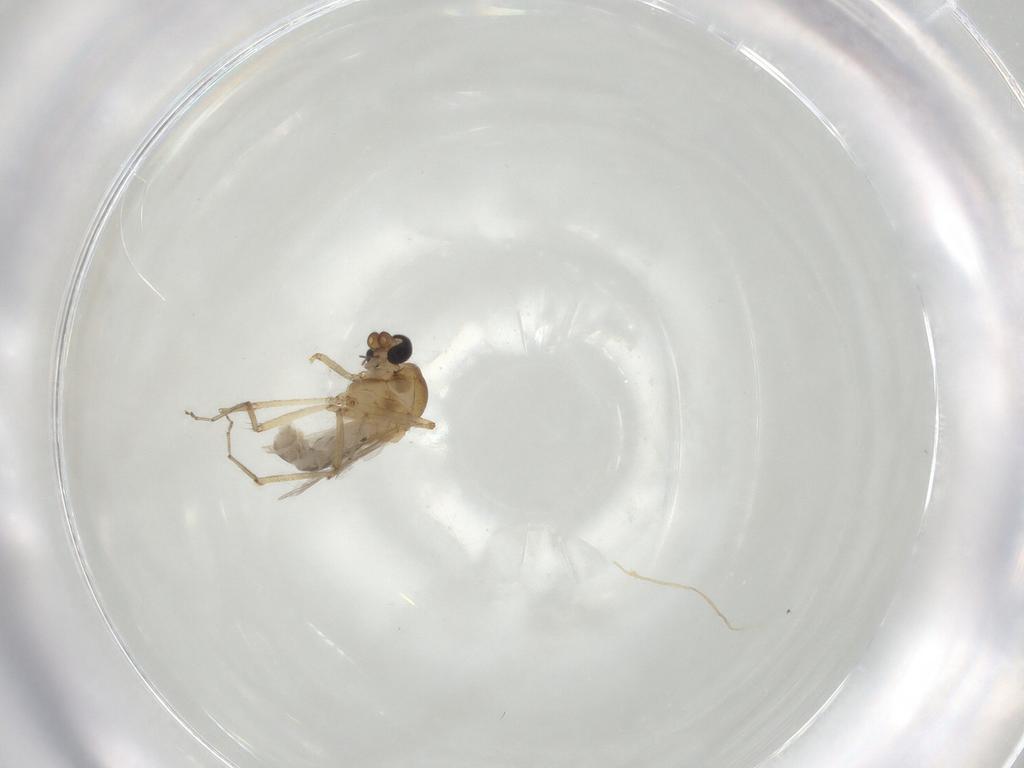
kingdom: Animalia
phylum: Arthropoda
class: Insecta
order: Diptera
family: Ceratopogonidae
